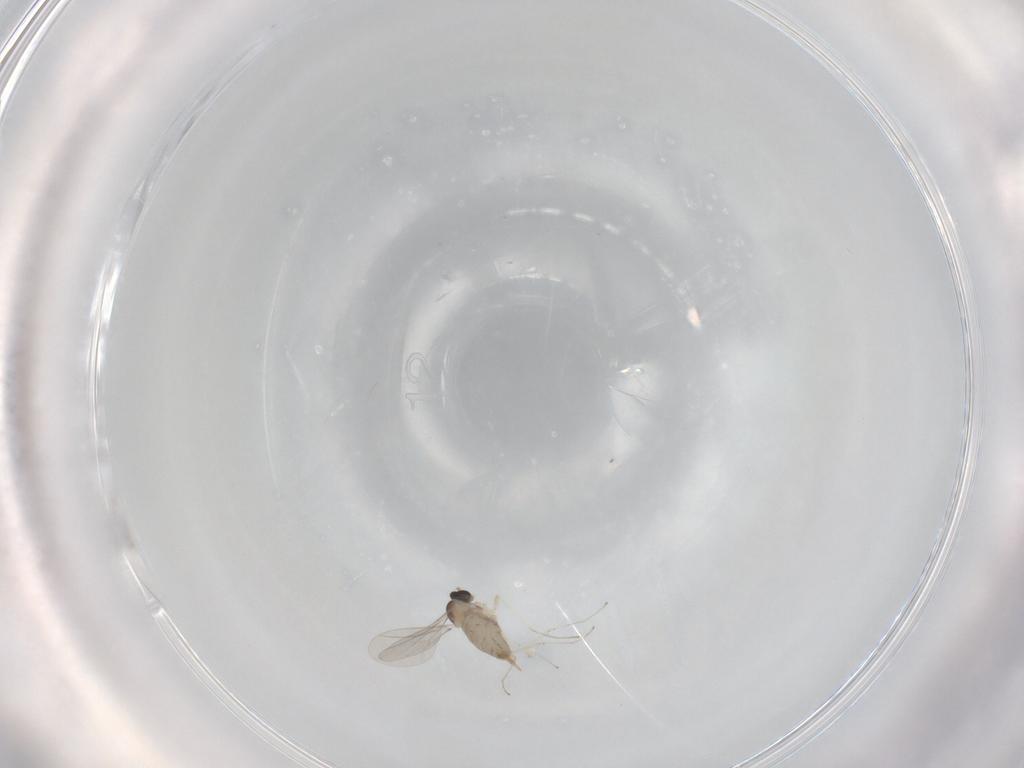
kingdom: Animalia
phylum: Arthropoda
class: Insecta
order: Diptera
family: Cecidomyiidae
